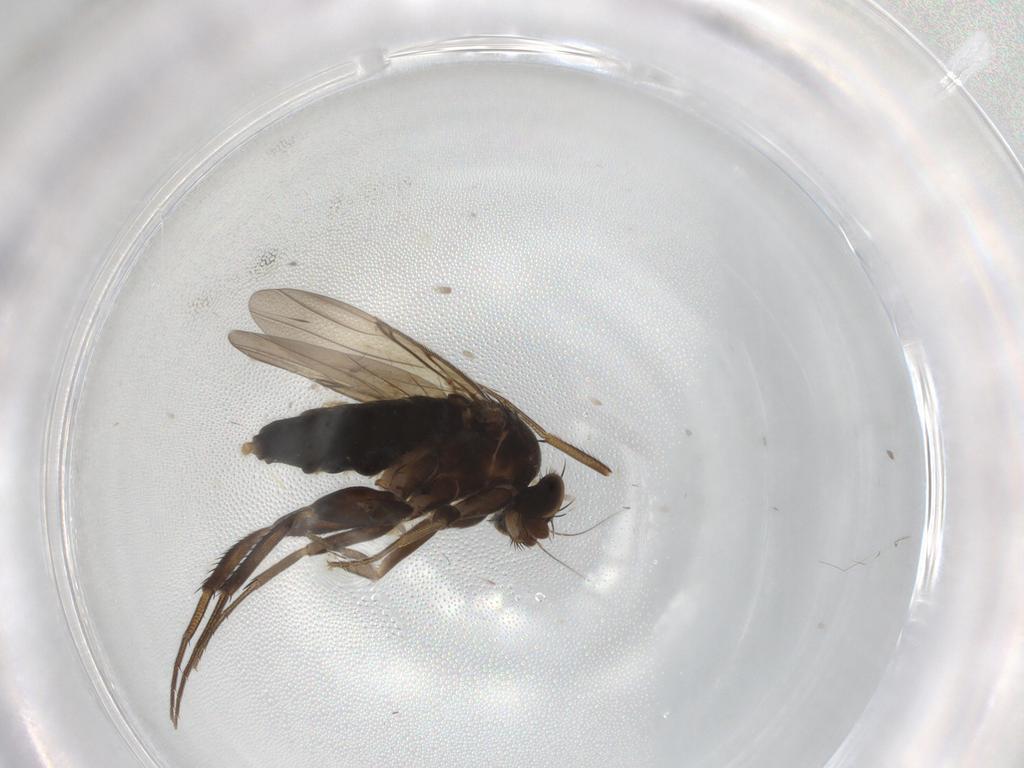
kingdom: Animalia
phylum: Arthropoda
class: Insecta
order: Diptera
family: Phoridae
